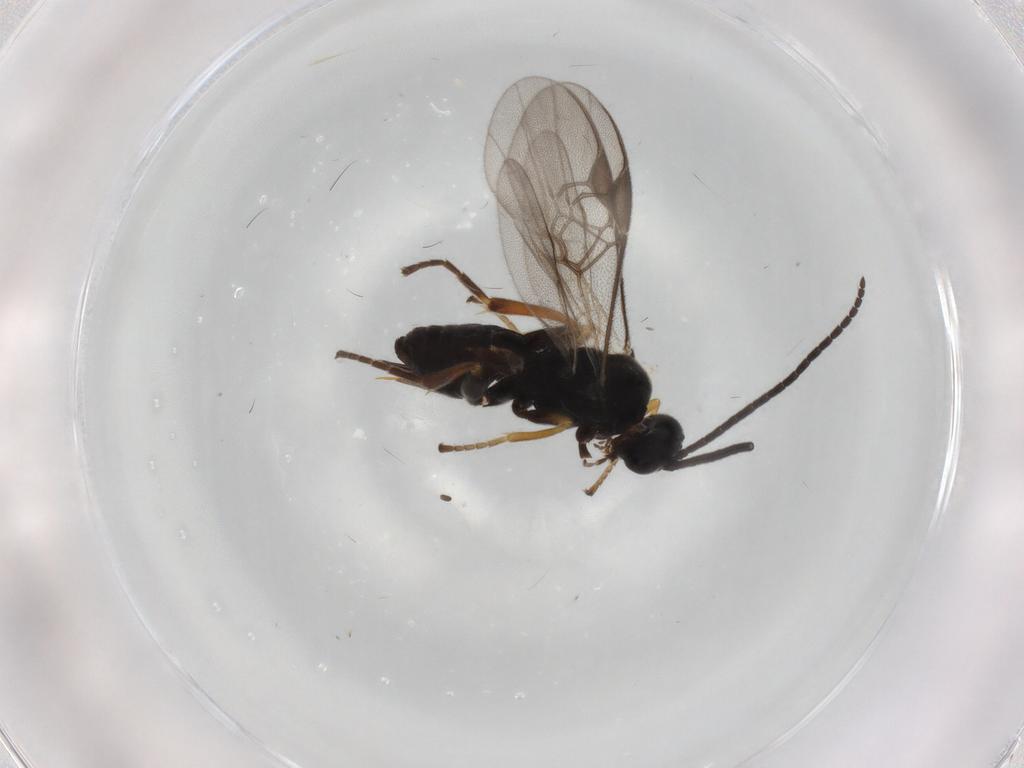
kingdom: Animalia
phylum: Arthropoda
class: Insecta
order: Hymenoptera
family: Braconidae
